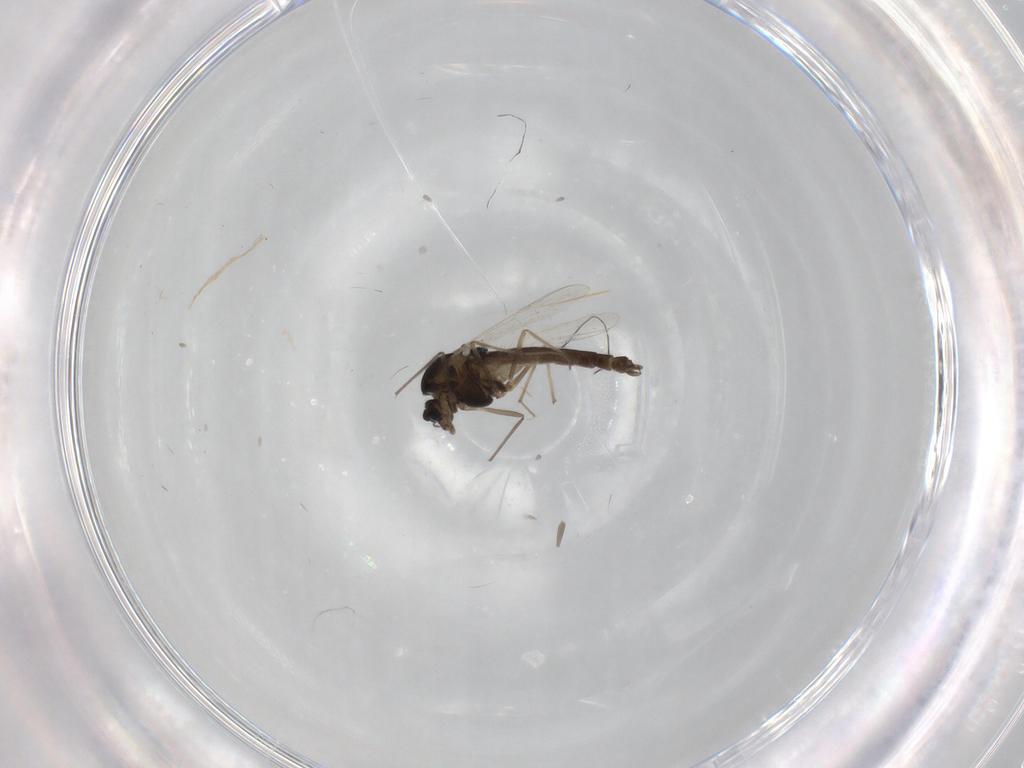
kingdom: Animalia
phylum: Arthropoda
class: Insecta
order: Diptera
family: Chironomidae
